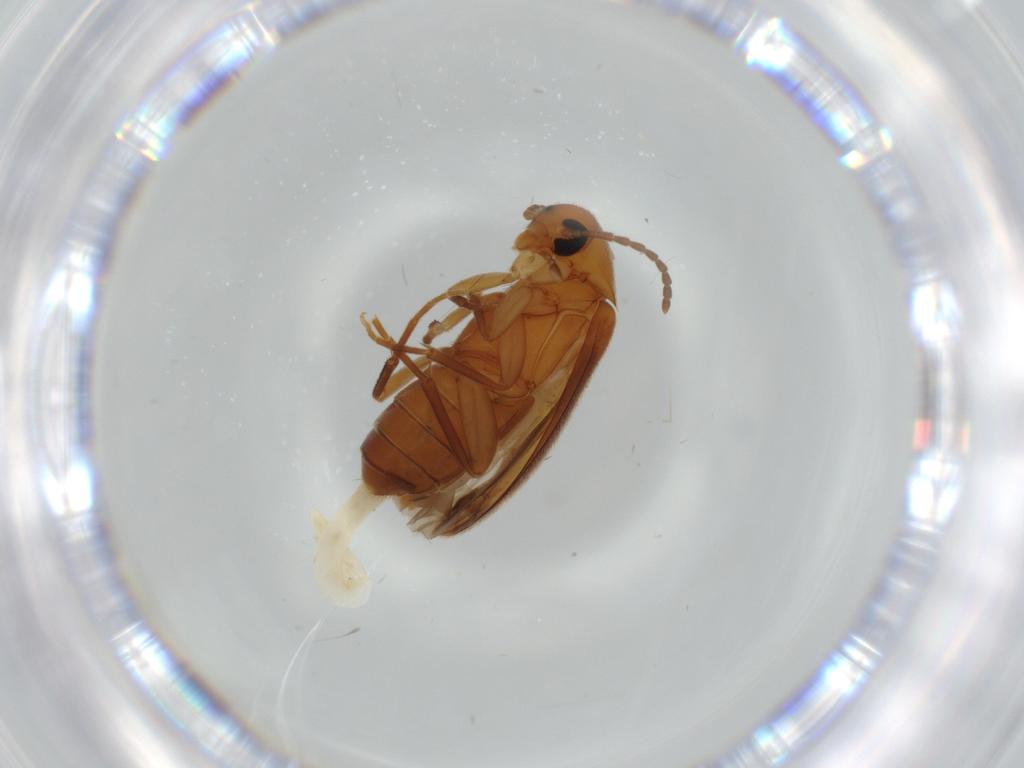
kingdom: Animalia
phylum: Arthropoda
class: Insecta
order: Coleoptera
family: Scraptiidae
